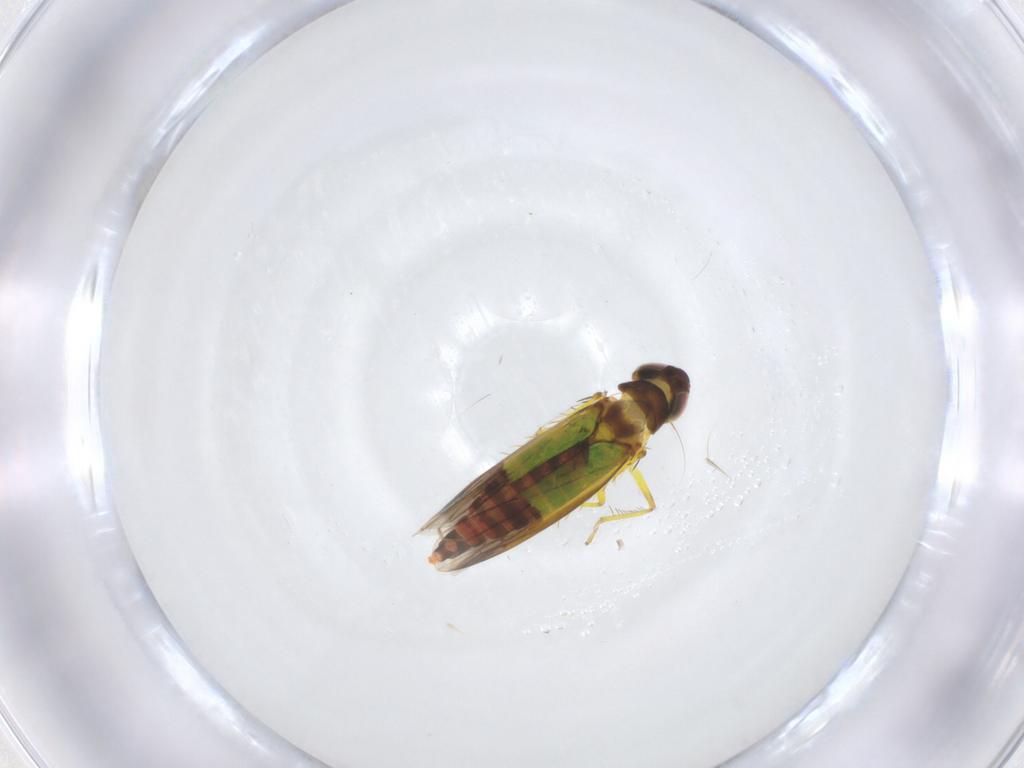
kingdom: Animalia
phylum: Arthropoda
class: Insecta
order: Hemiptera
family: Cicadellidae
